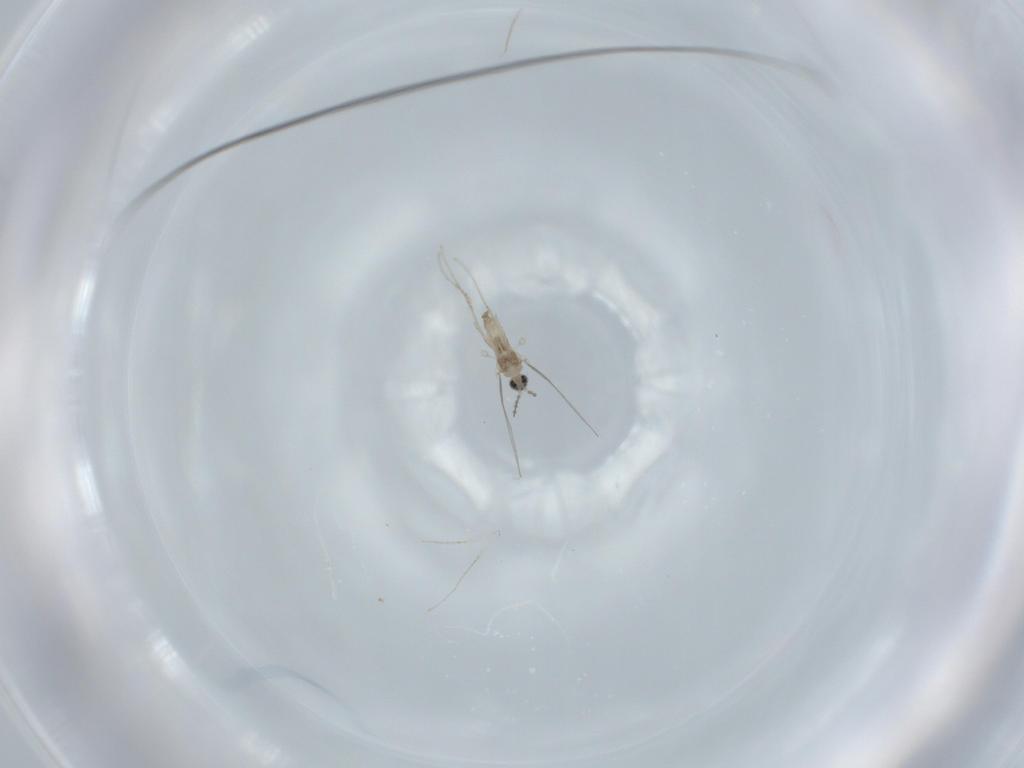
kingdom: Animalia
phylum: Arthropoda
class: Insecta
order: Diptera
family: Cecidomyiidae
